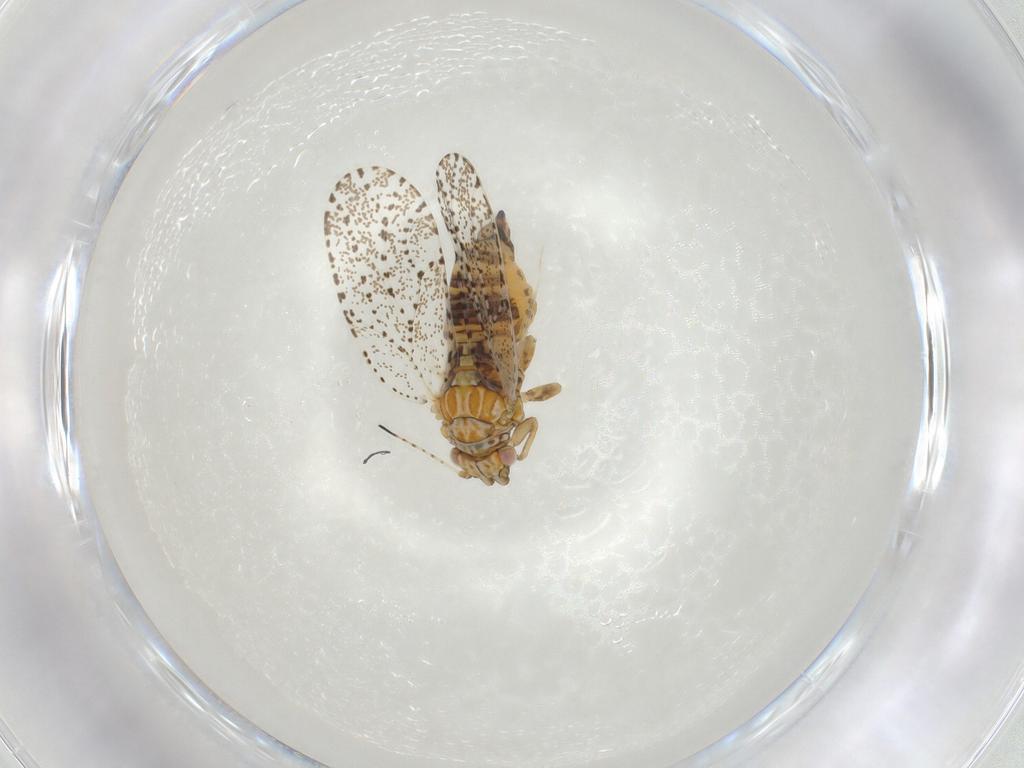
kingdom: Animalia
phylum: Arthropoda
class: Insecta
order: Hemiptera
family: Psylloidea_incertae_sedis
